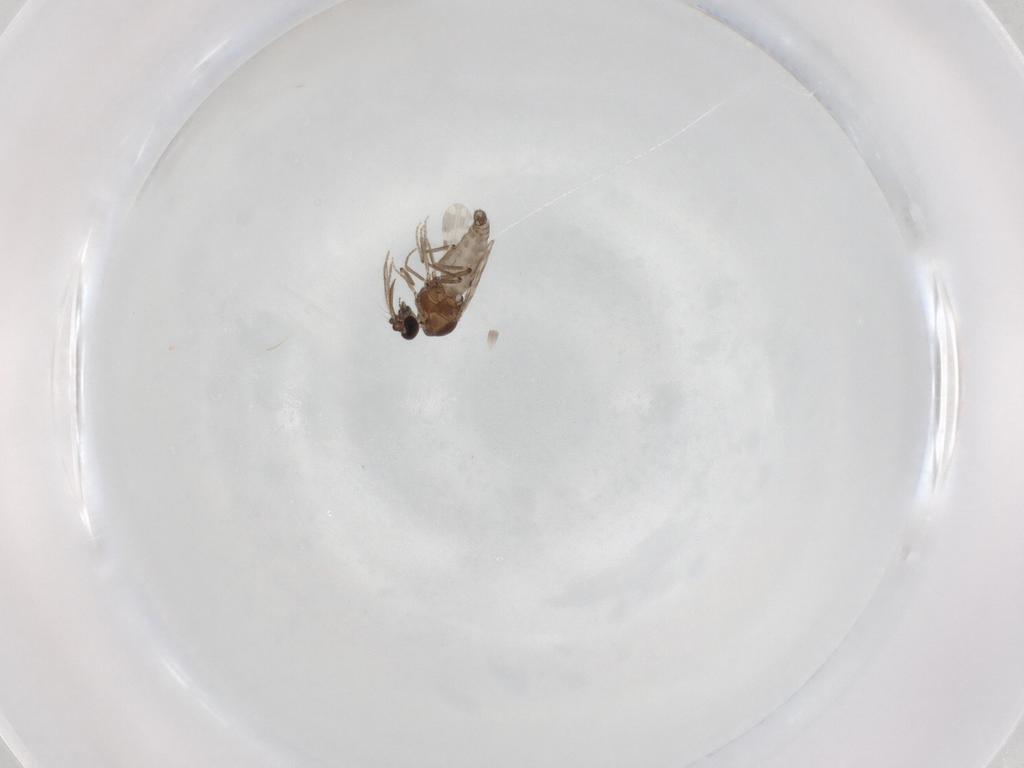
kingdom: Animalia
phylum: Arthropoda
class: Insecta
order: Diptera
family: Ceratopogonidae
